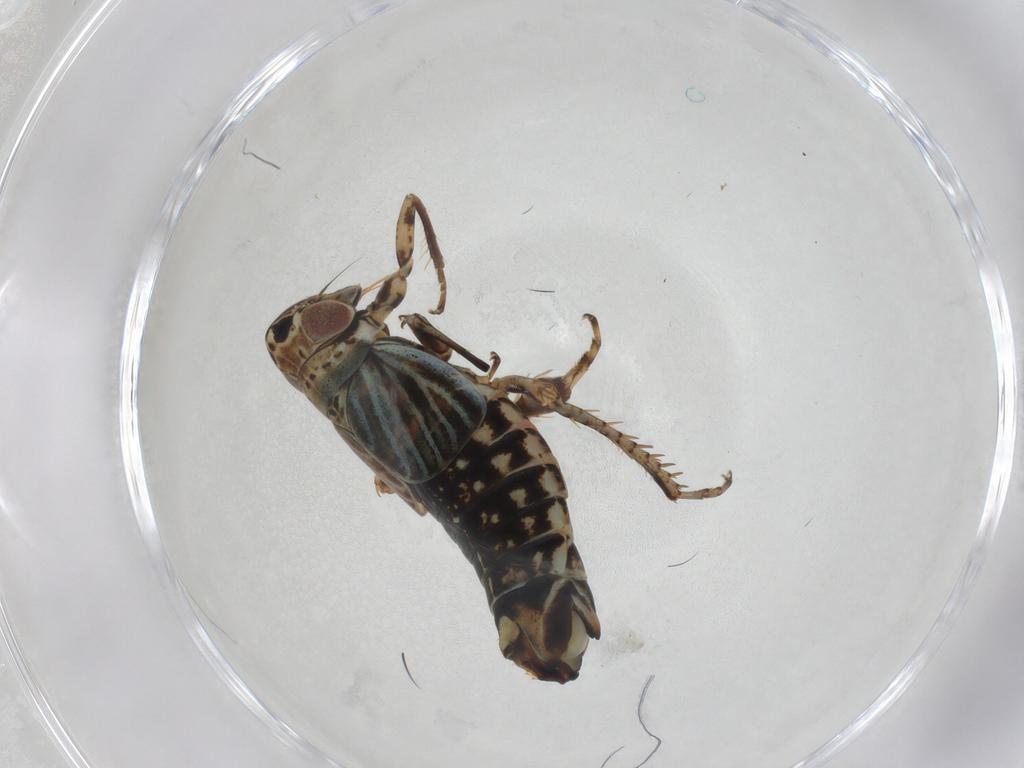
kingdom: Animalia
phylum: Arthropoda
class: Insecta
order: Hemiptera
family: Cicadellidae
